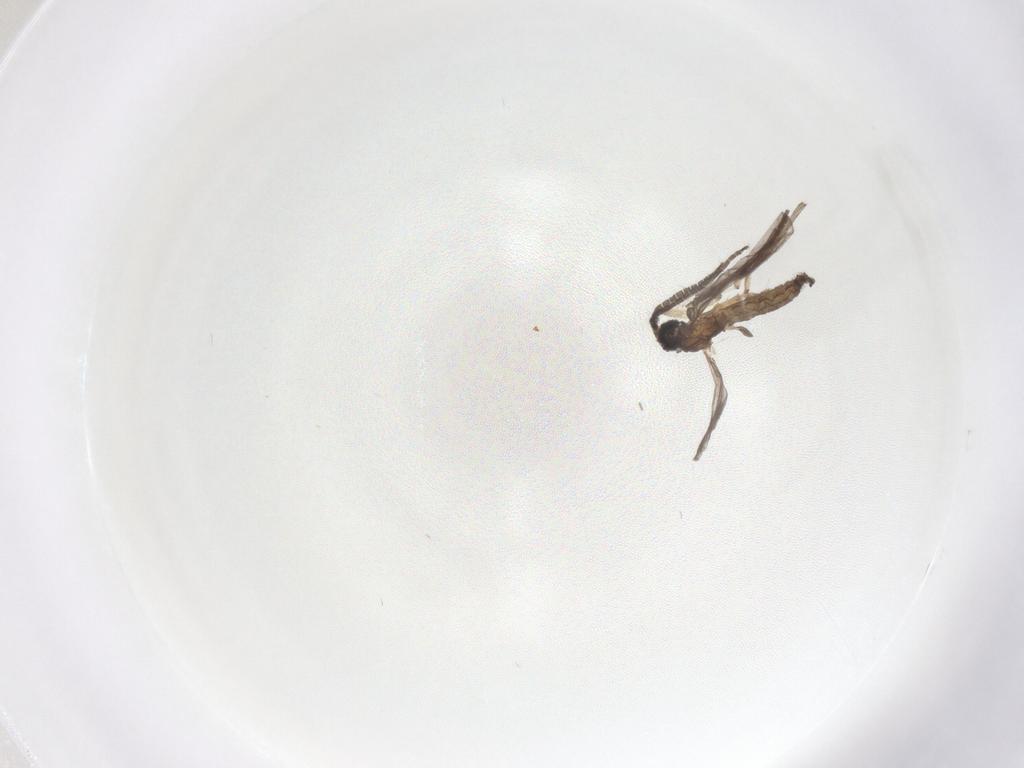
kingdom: Animalia
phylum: Arthropoda
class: Insecta
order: Diptera
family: Sciaridae
